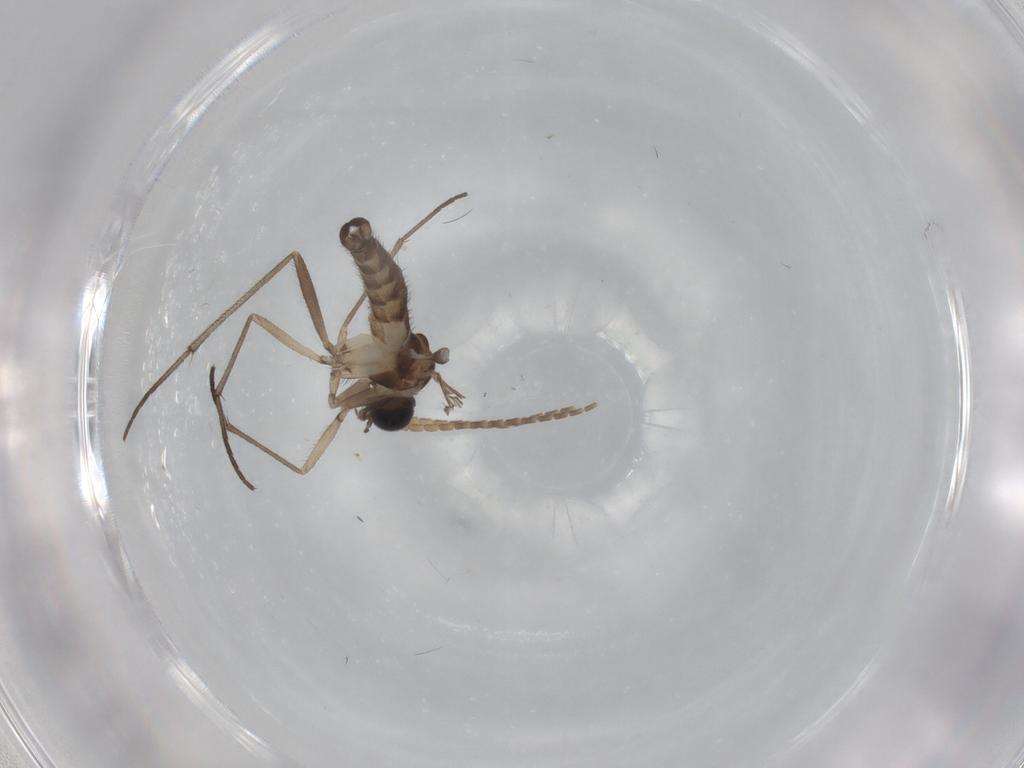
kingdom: Animalia
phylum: Arthropoda
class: Insecta
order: Diptera
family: Sciaridae
